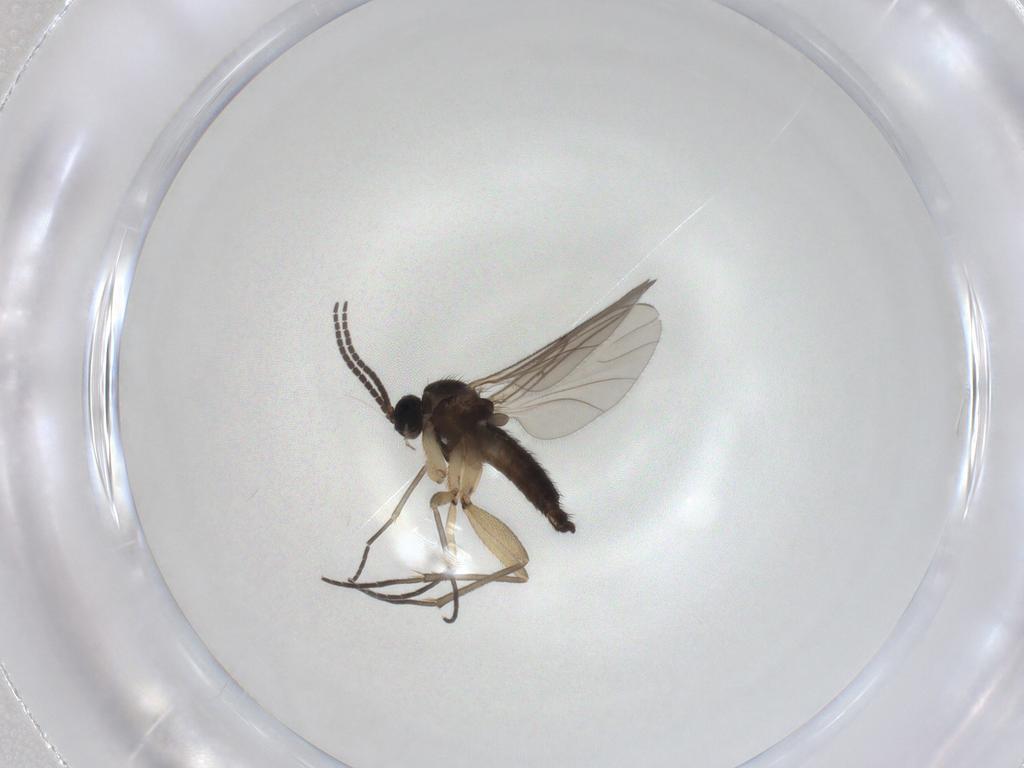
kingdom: Animalia
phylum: Arthropoda
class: Insecta
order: Diptera
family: Sciaridae
